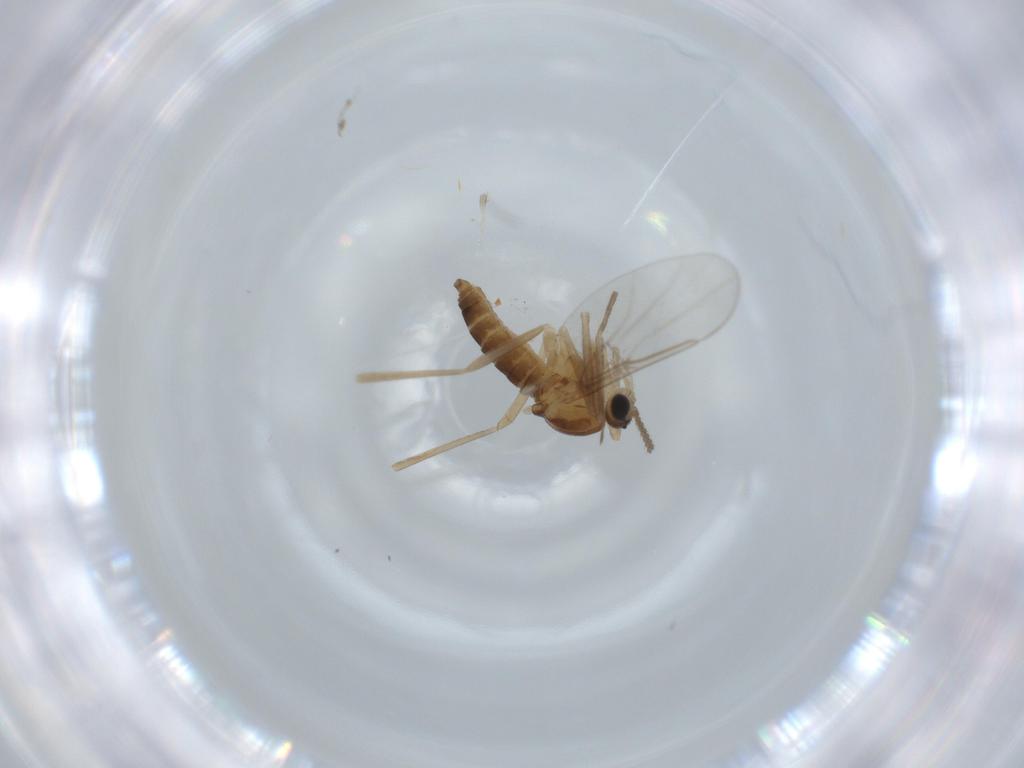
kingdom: Animalia
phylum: Arthropoda
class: Insecta
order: Diptera
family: Cecidomyiidae
